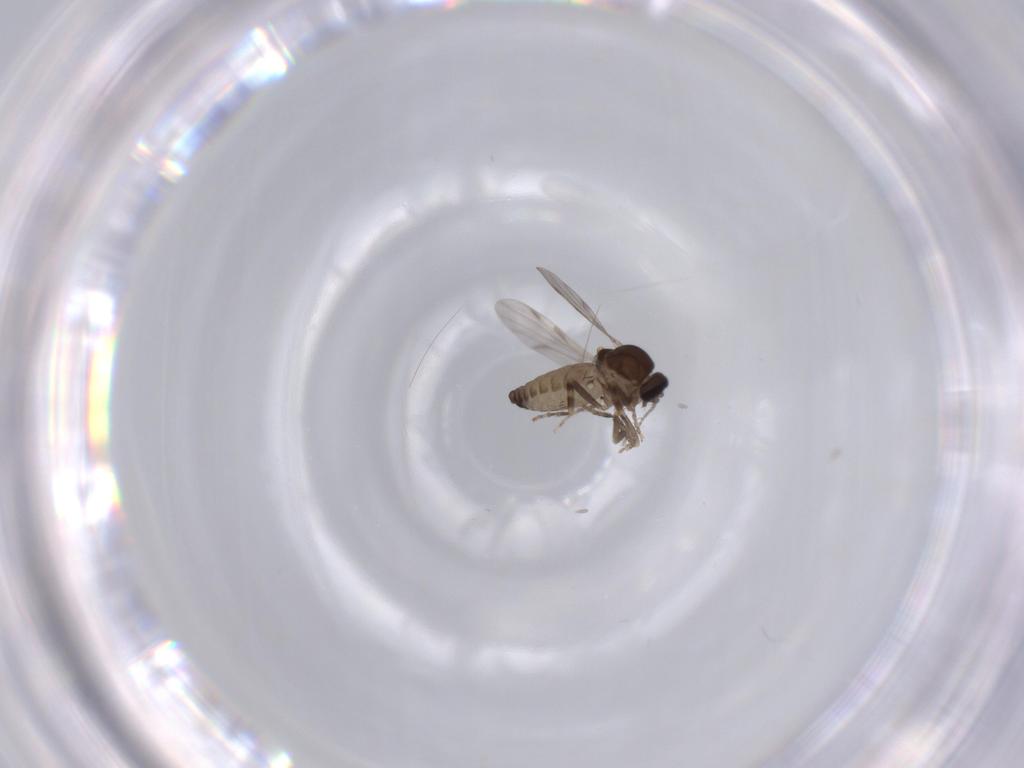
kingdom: Animalia
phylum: Arthropoda
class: Insecta
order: Diptera
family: Ceratopogonidae
